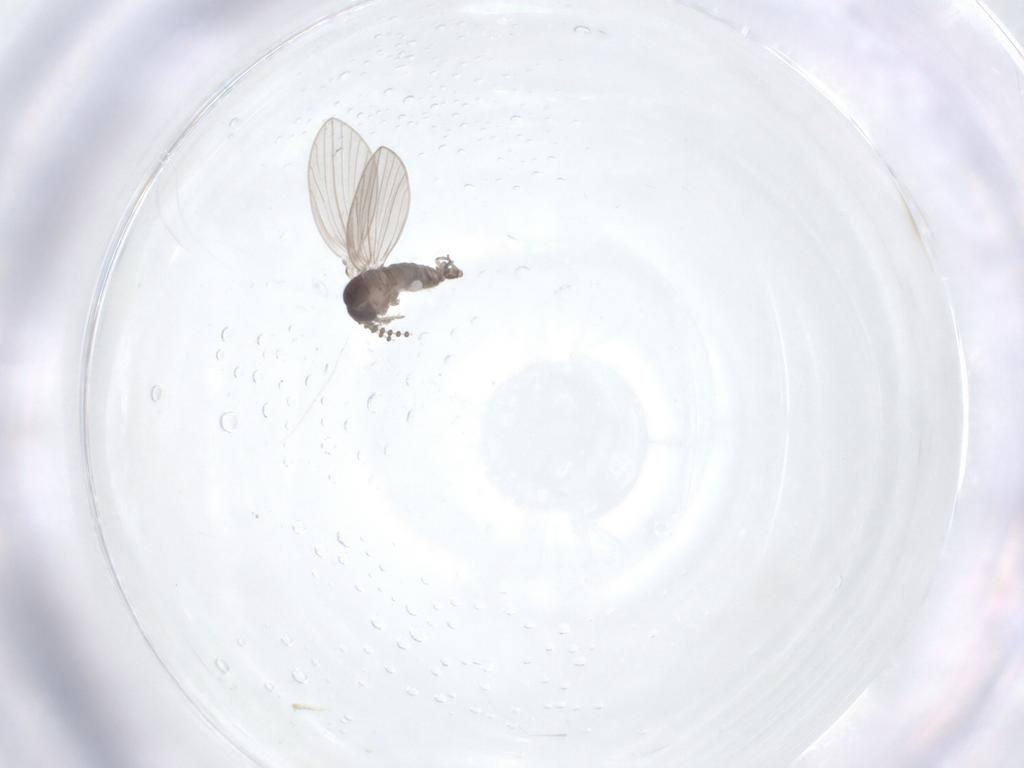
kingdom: Animalia
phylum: Arthropoda
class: Insecta
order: Diptera
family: Psychodidae
